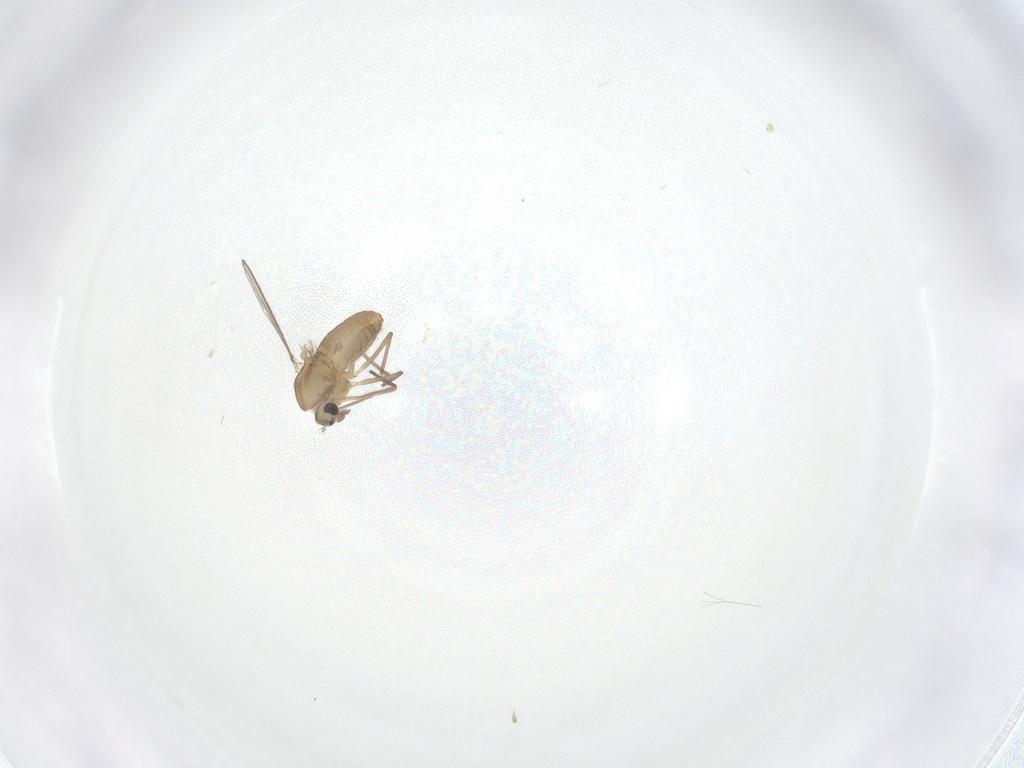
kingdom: Animalia
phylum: Arthropoda
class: Insecta
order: Diptera
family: Chironomidae
